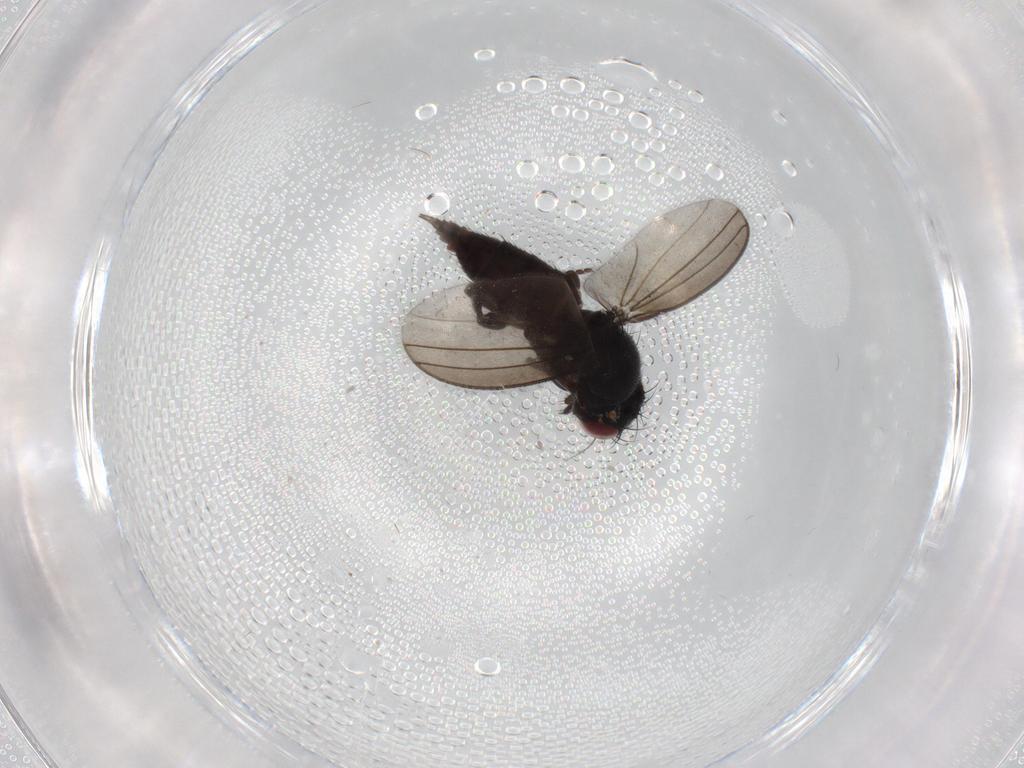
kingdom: Animalia
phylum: Arthropoda
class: Insecta
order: Diptera
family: Milichiidae
